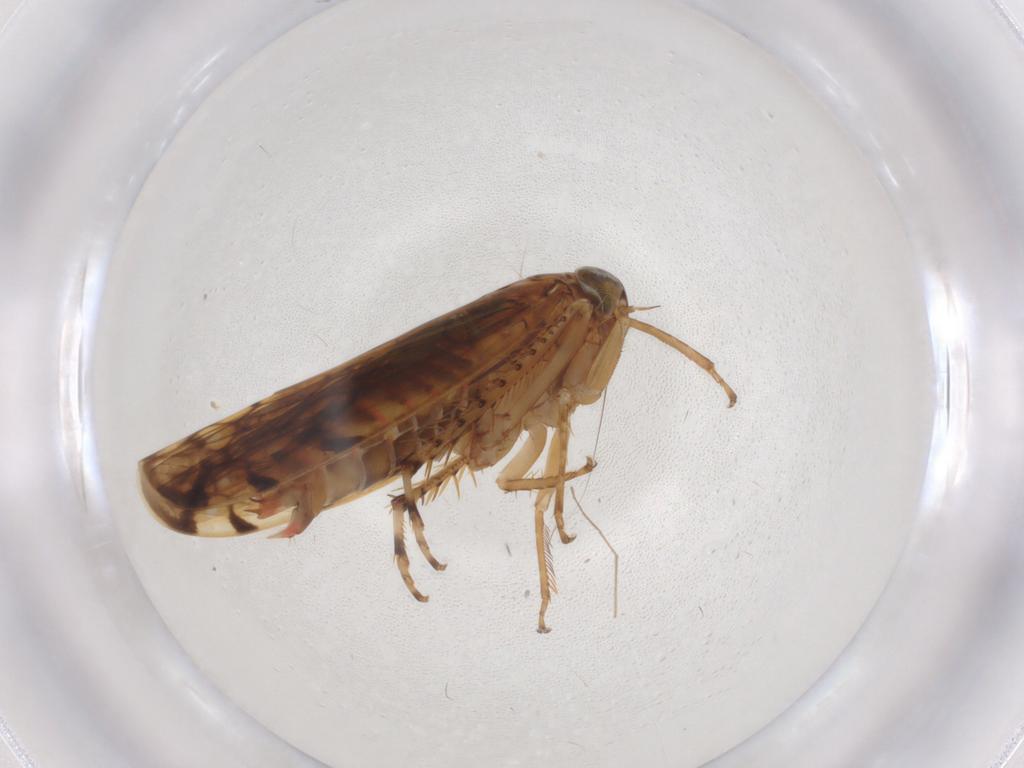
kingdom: Animalia
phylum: Arthropoda
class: Insecta
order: Hemiptera
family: Cicadellidae
